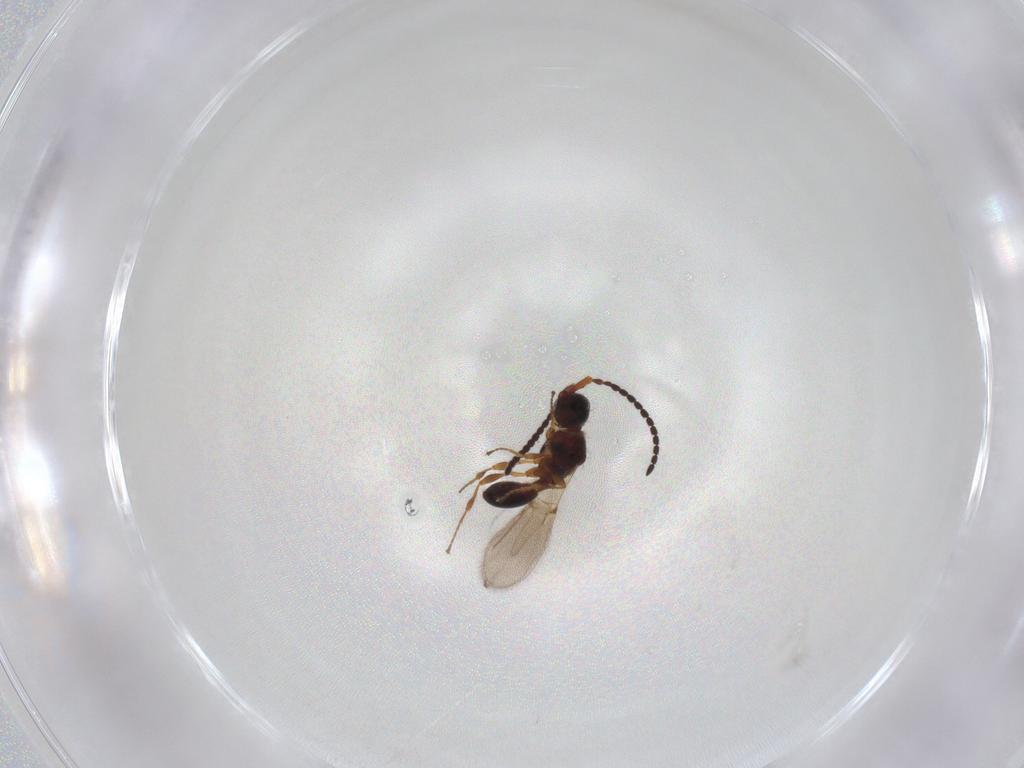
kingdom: Animalia
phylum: Arthropoda
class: Insecta
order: Hymenoptera
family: Diapriidae
